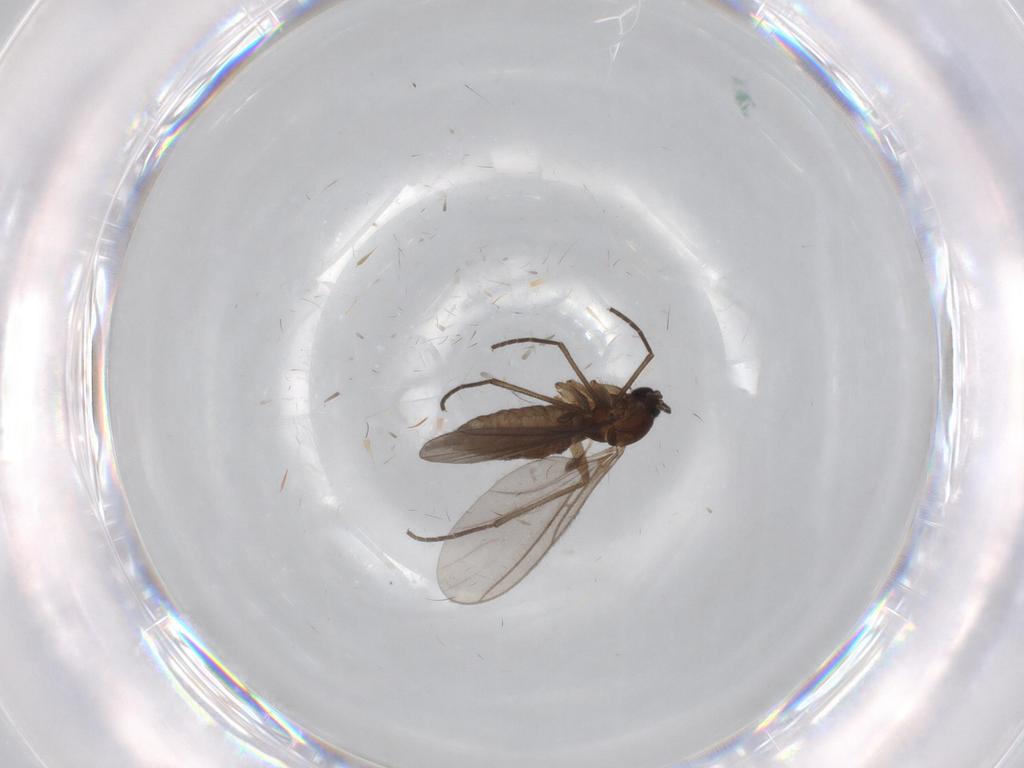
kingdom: Animalia
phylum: Arthropoda
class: Insecta
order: Diptera
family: Sciaridae
